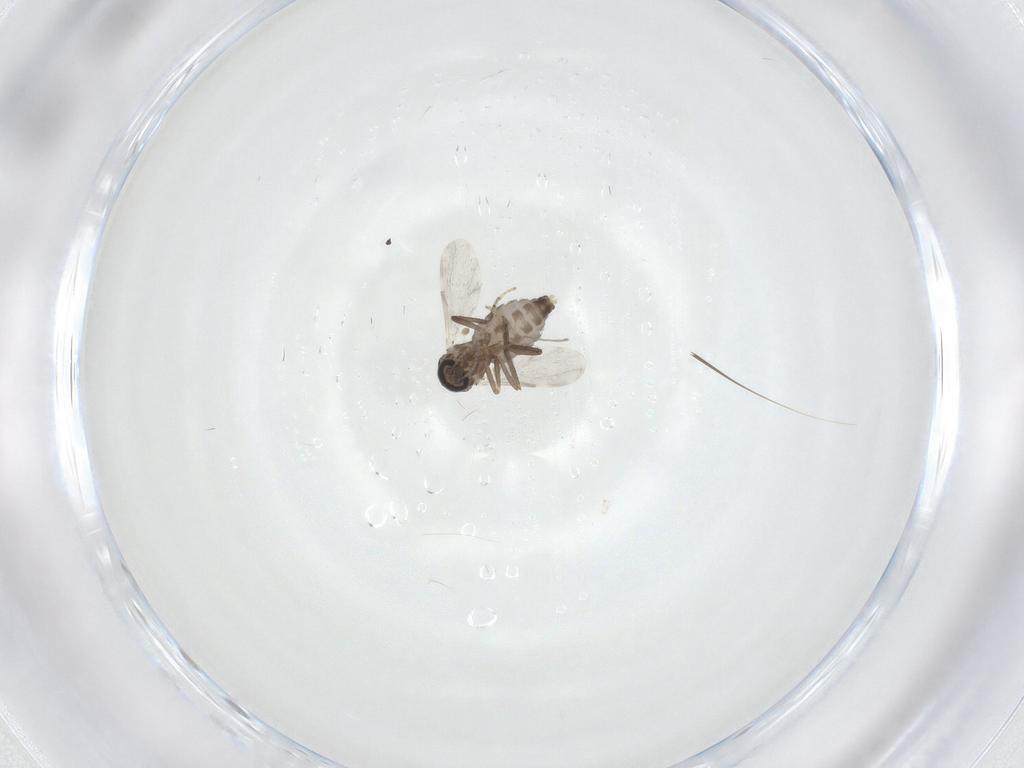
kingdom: Animalia
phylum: Arthropoda
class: Insecta
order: Diptera
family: Ceratopogonidae
